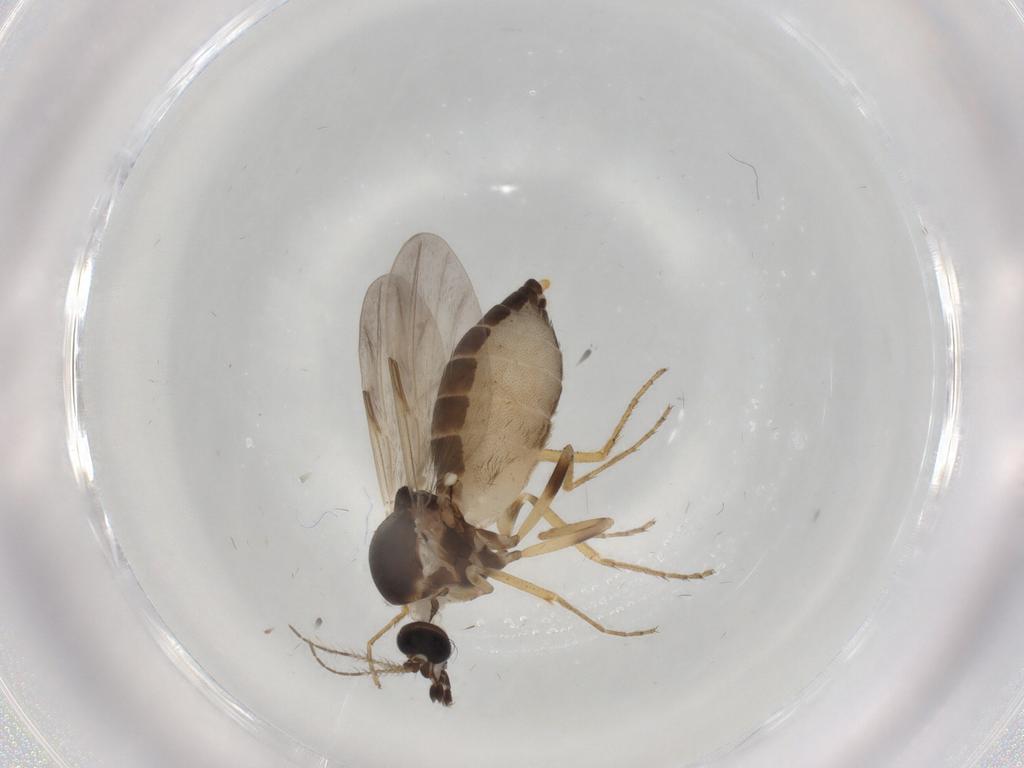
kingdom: Animalia
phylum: Arthropoda
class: Insecta
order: Diptera
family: Ceratopogonidae
